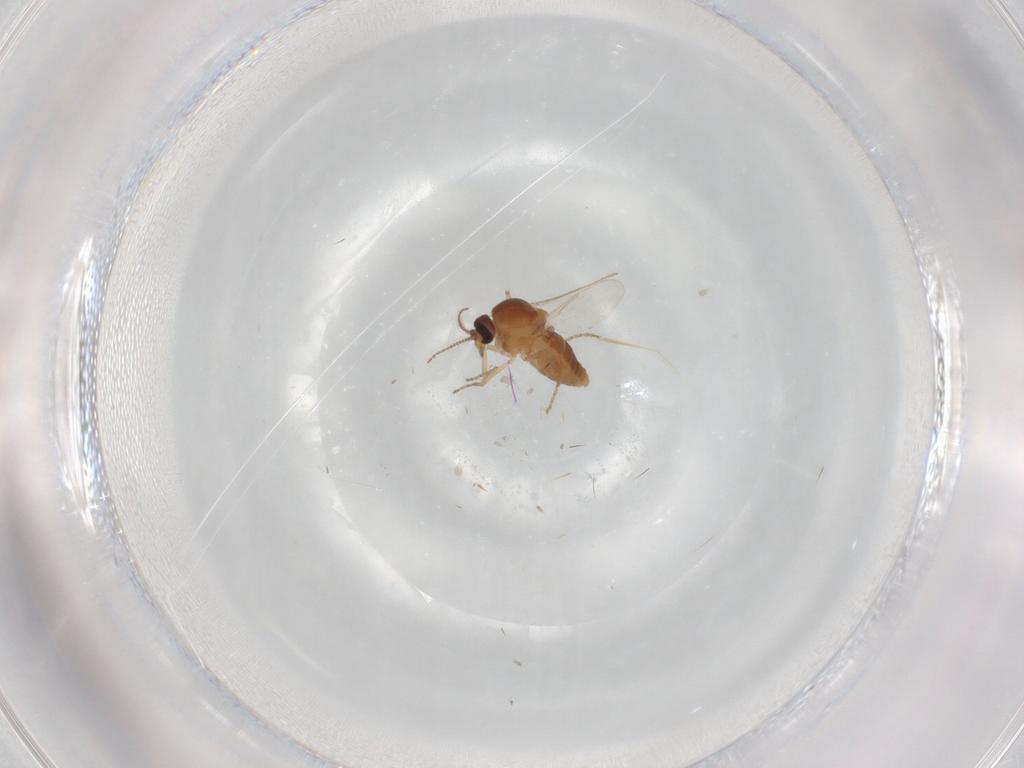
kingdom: Animalia
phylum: Arthropoda
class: Insecta
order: Diptera
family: Ceratopogonidae
